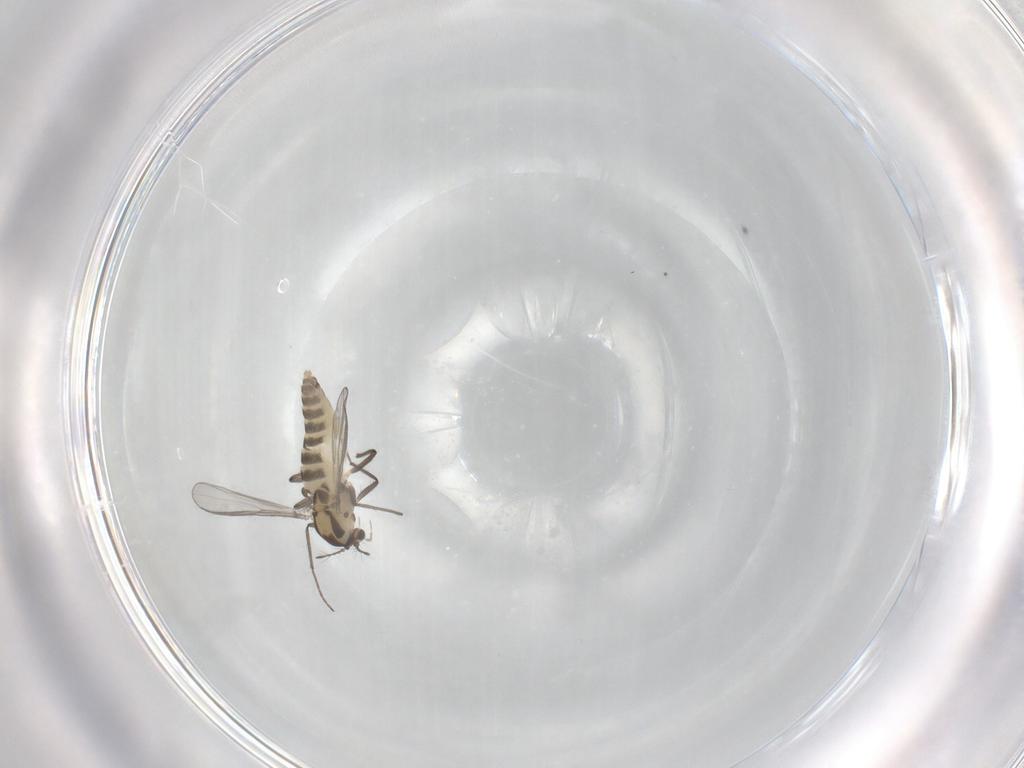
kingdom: Animalia
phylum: Arthropoda
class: Insecta
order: Diptera
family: Chironomidae
